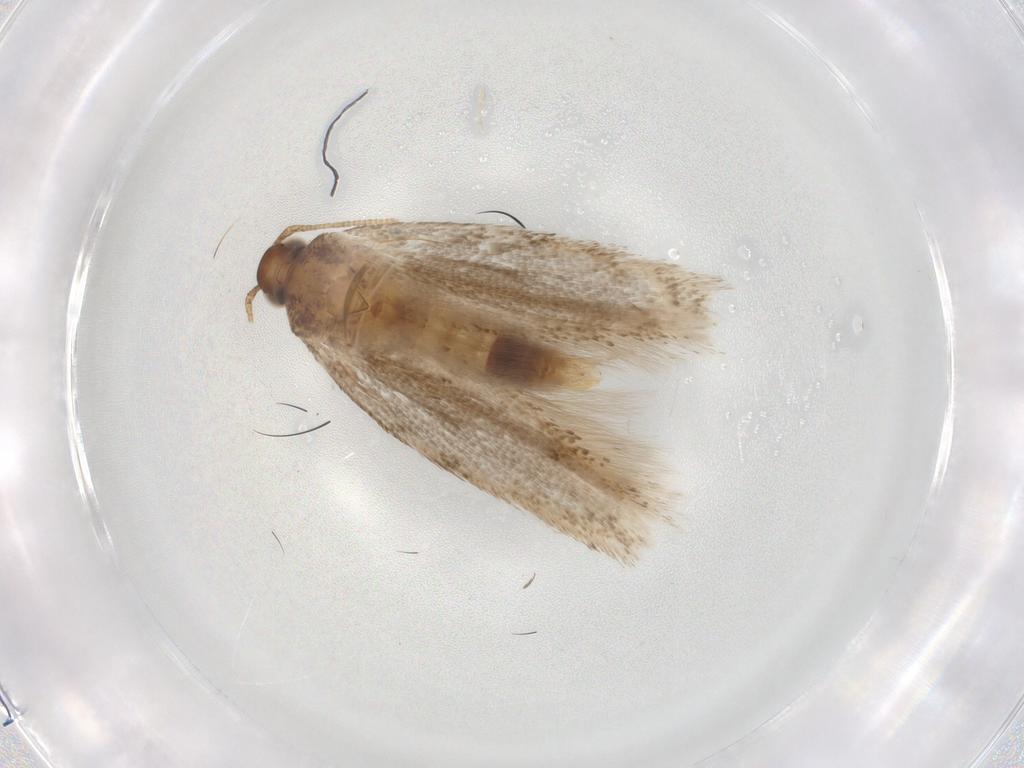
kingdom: Animalia
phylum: Arthropoda
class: Insecta
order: Lepidoptera
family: Gelechiidae
